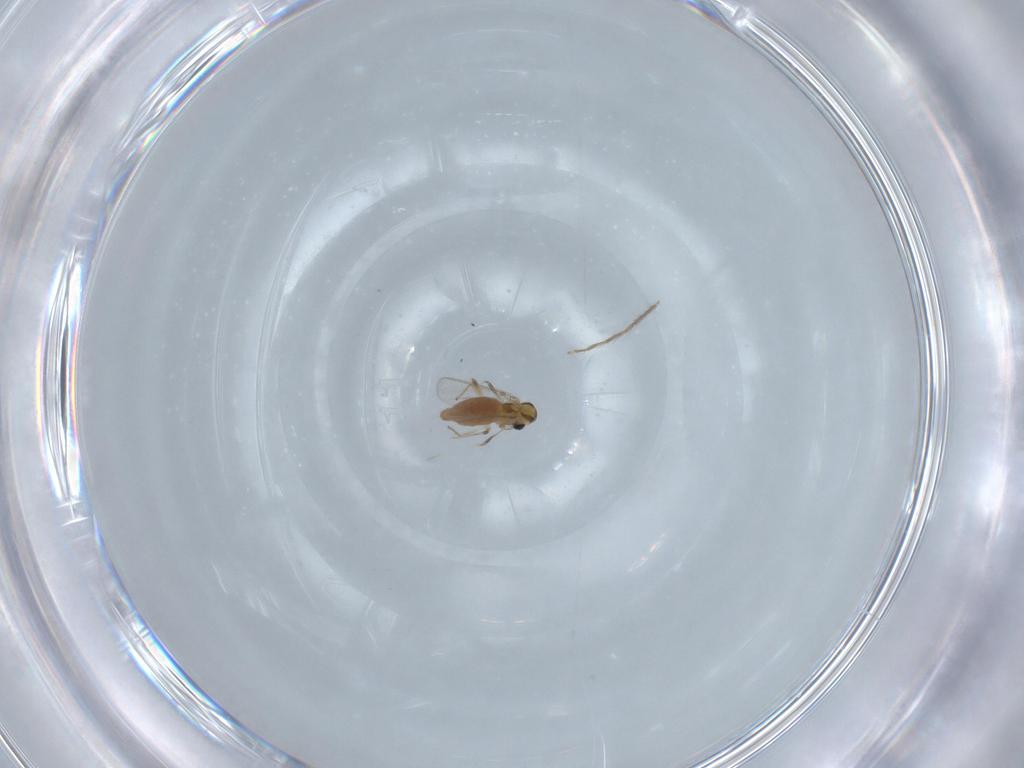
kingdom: Animalia
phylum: Arthropoda
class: Insecta
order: Diptera
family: Chironomidae
